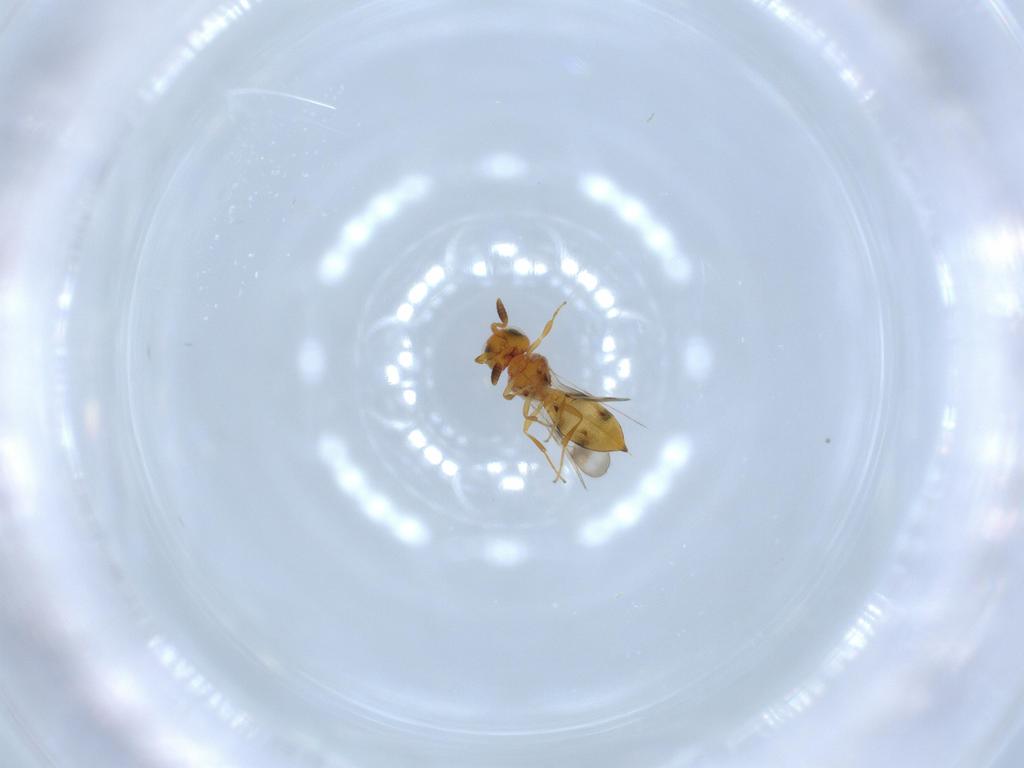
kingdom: Animalia
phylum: Arthropoda
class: Insecta
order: Hymenoptera
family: Scelionidae
